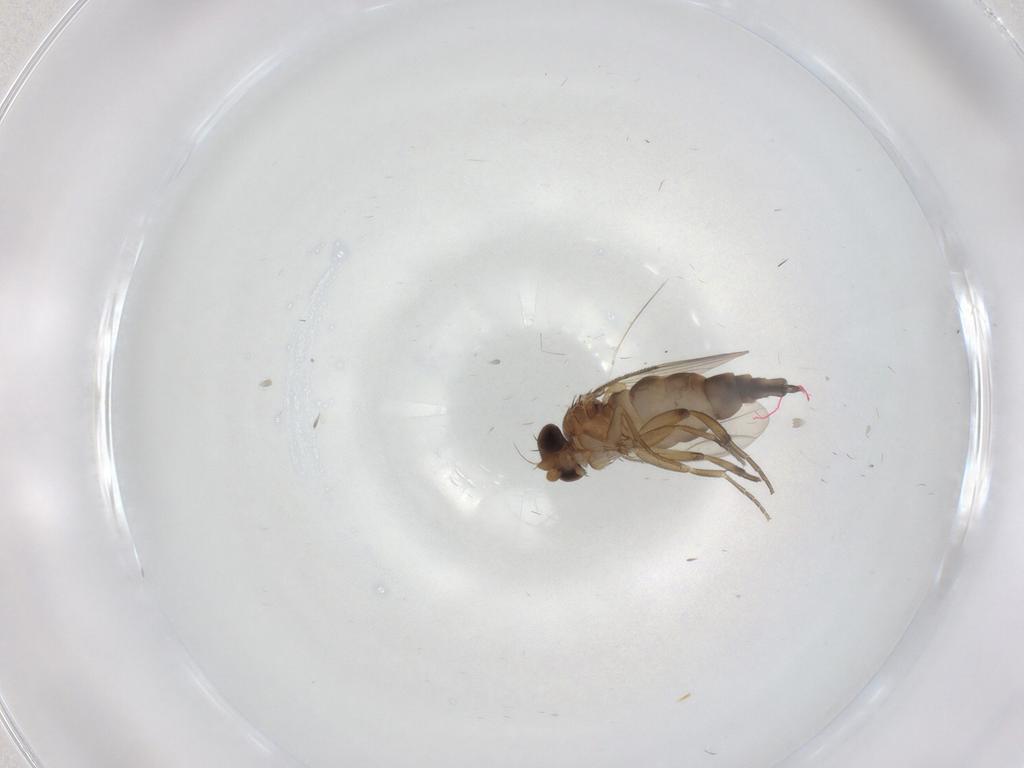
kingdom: Animalia
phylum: Arthropoda
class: Insecta
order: Diptera
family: Phoridae
